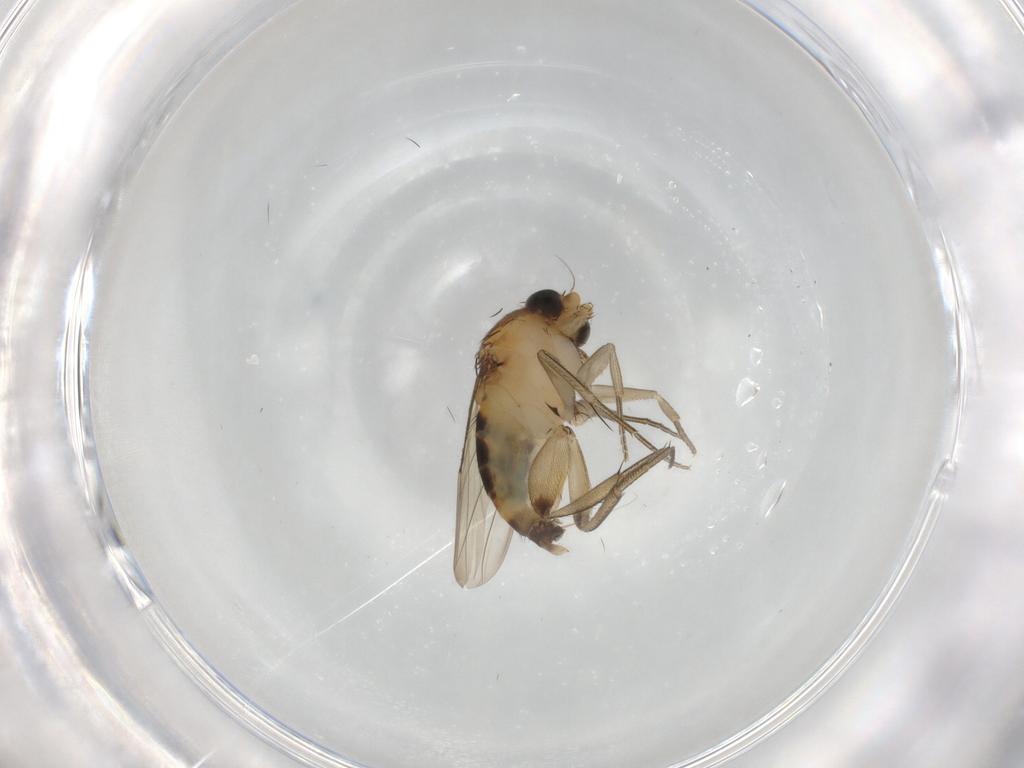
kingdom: Animalia
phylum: Arthropoda
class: Insecta
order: Diptera
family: Phoridae
